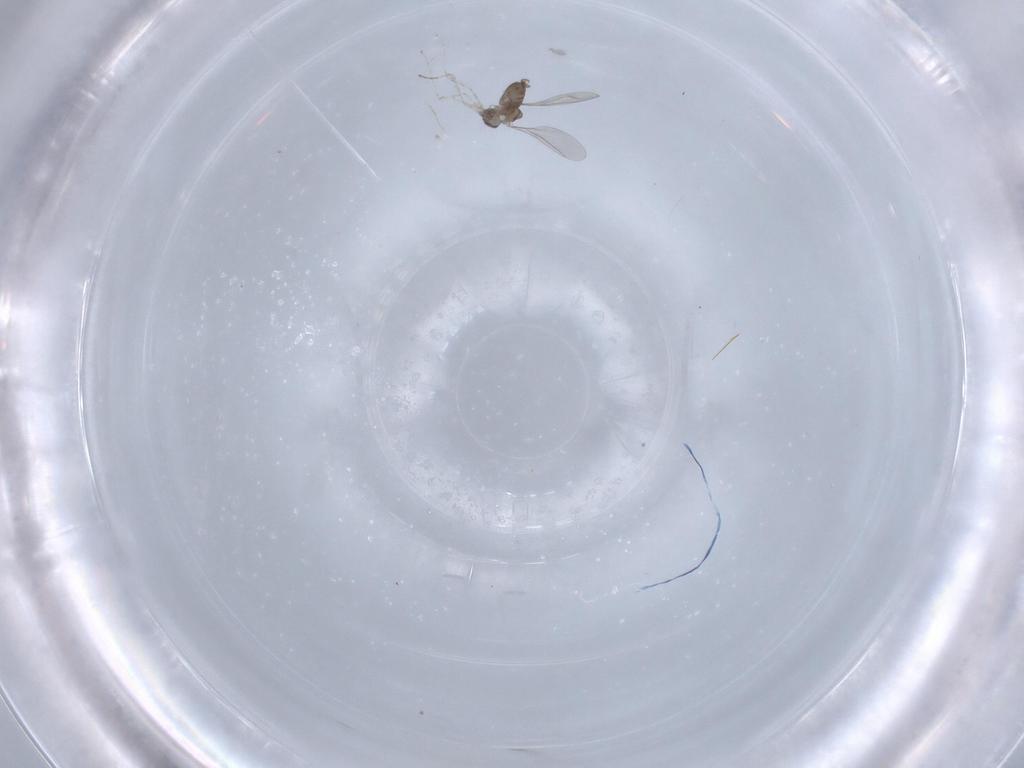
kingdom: Animalia
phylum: Arthropoda
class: Insecta
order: Diptera
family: Cecidomyiidae
